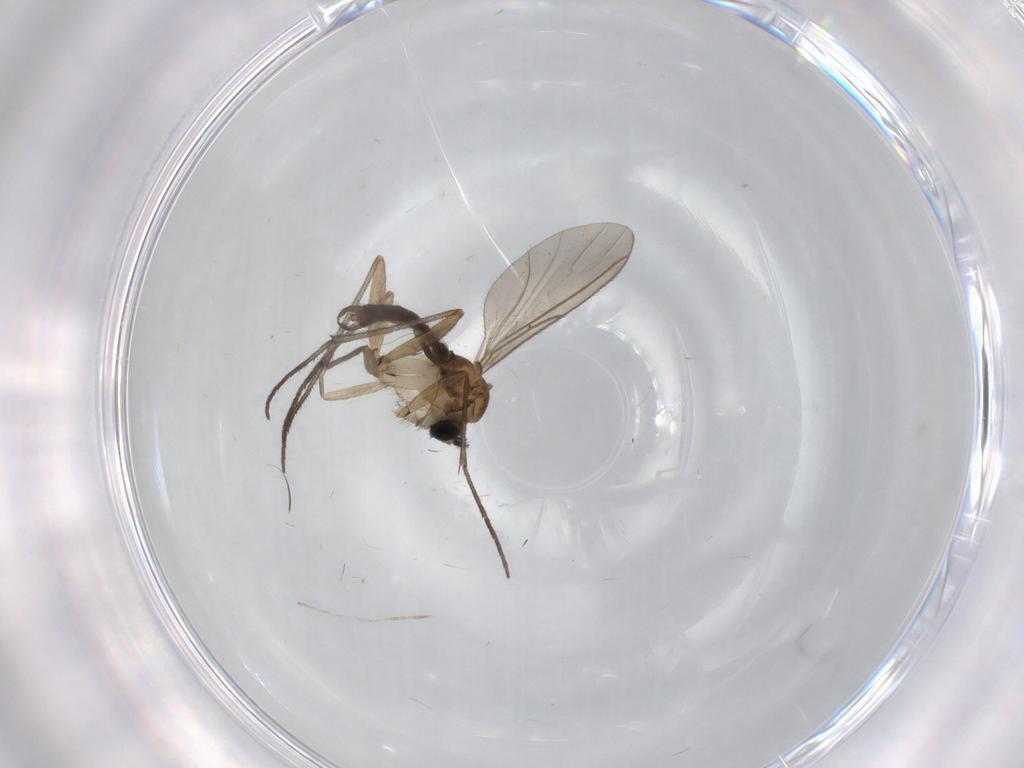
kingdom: Animalia
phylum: Arthropoda
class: Insecta
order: Diptera
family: Sciaridae
